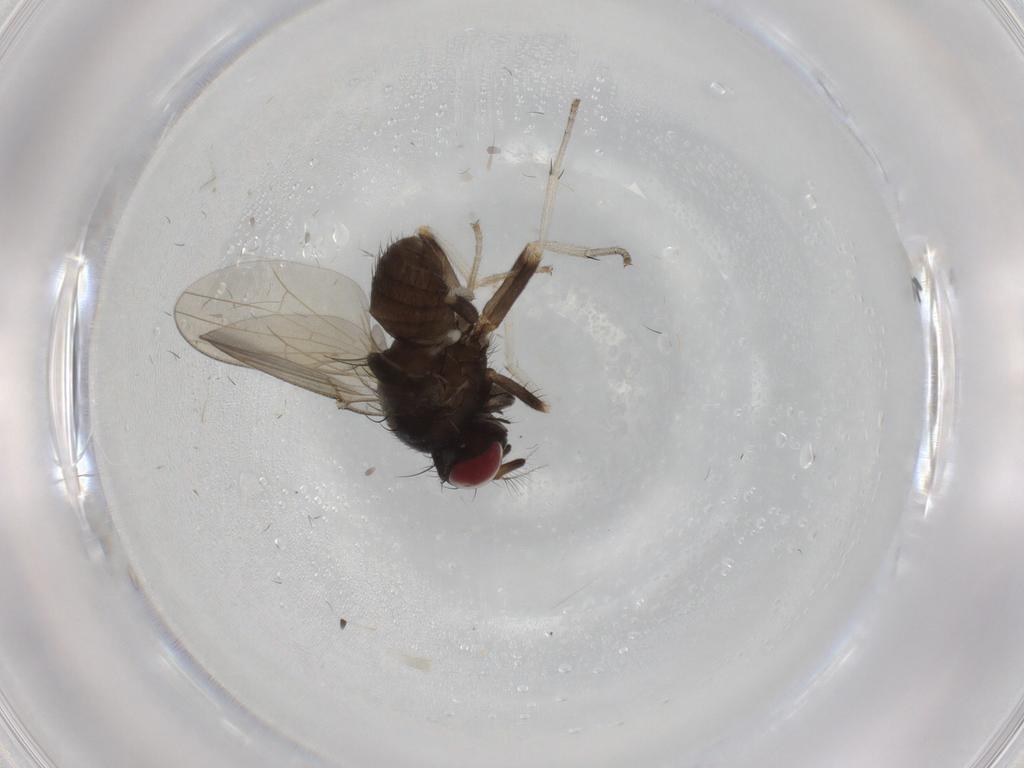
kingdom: Animalia
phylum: Arthropoda
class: Insecta
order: Diptera
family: Lauxaniidae
